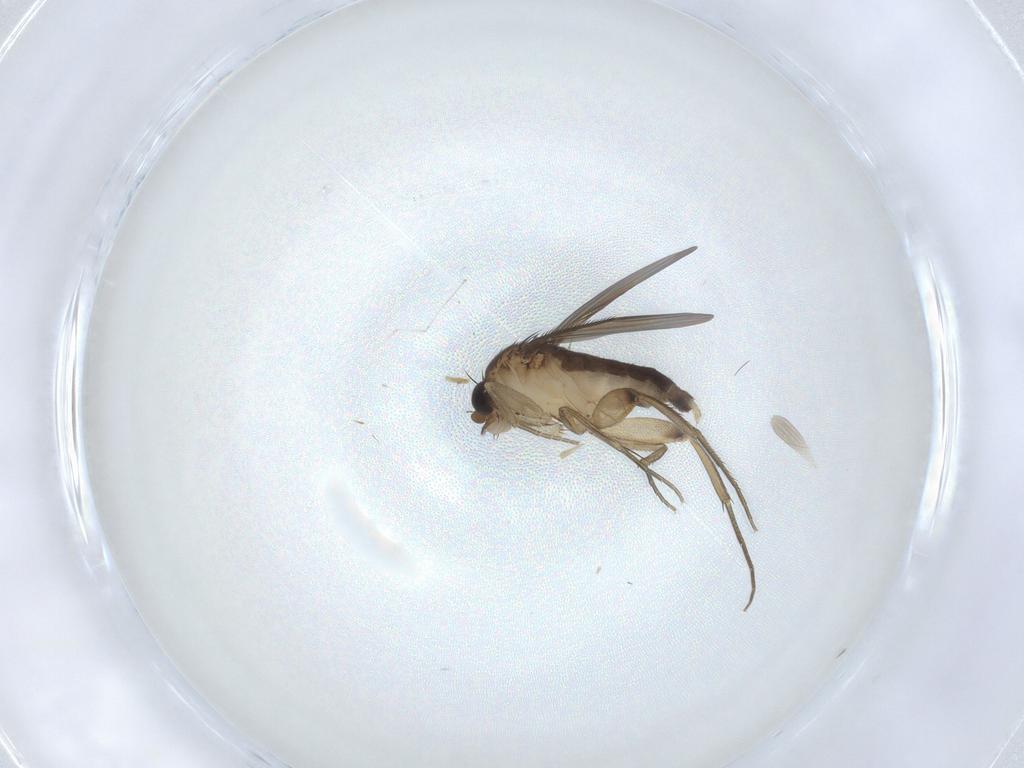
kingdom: Animalia
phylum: Arthropoda
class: Insecta
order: Diptera
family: Phoridae
